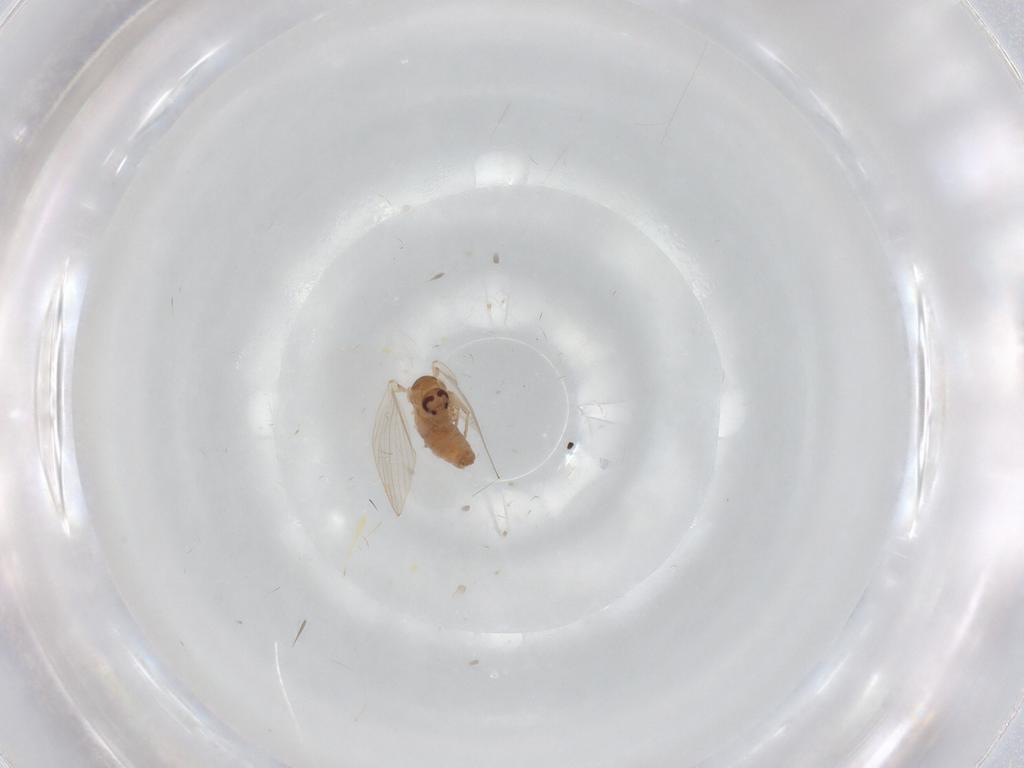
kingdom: Animalia
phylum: Arthropoda
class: Insecta
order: Diptera
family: Psychodidae
